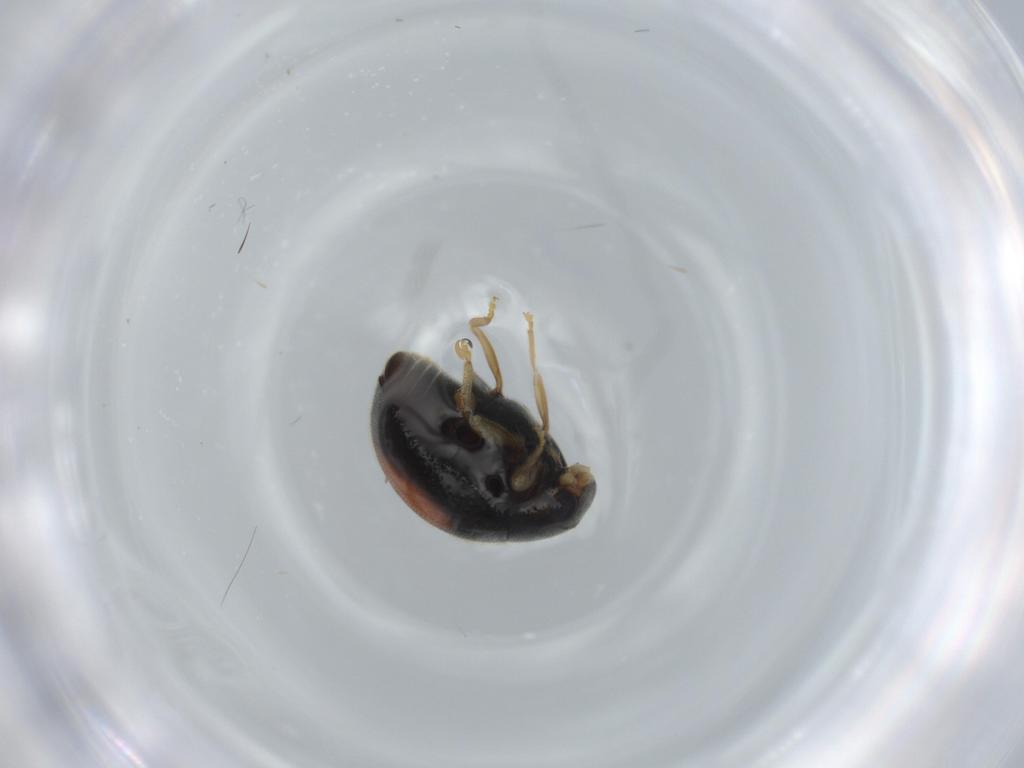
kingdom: Animalia
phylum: Arthropoda
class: Insecta
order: Coleoptera
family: Coccinellidae
